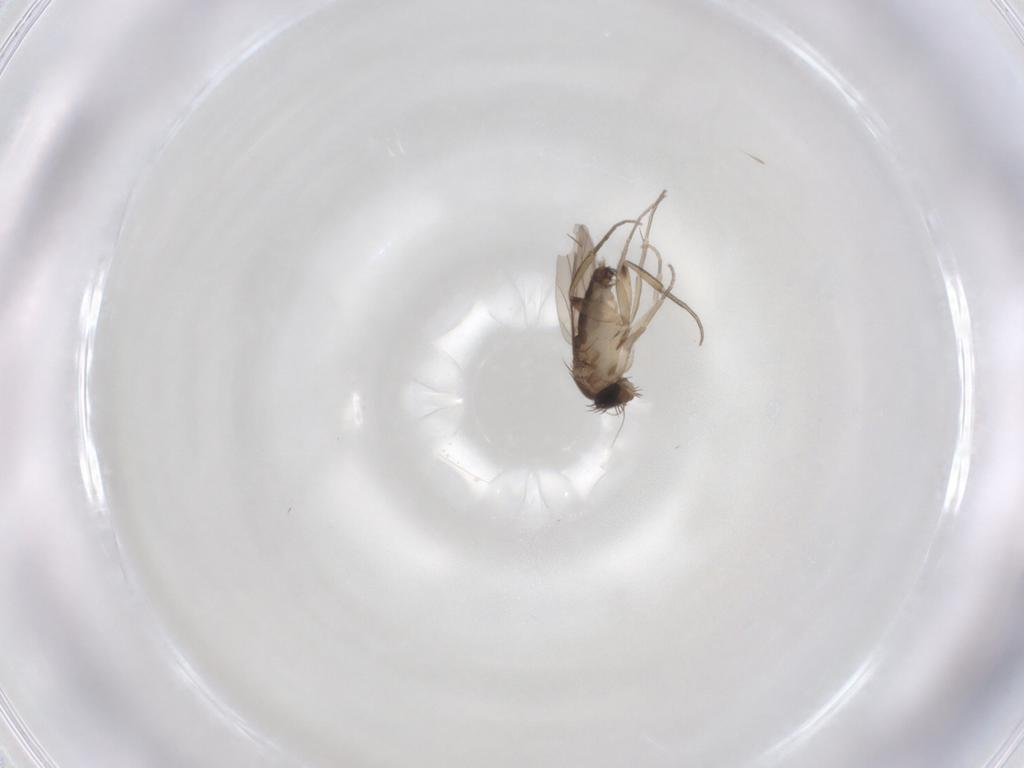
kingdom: Animalia
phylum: Arthropoda
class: Insecta
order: Diptera
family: Phoridae
